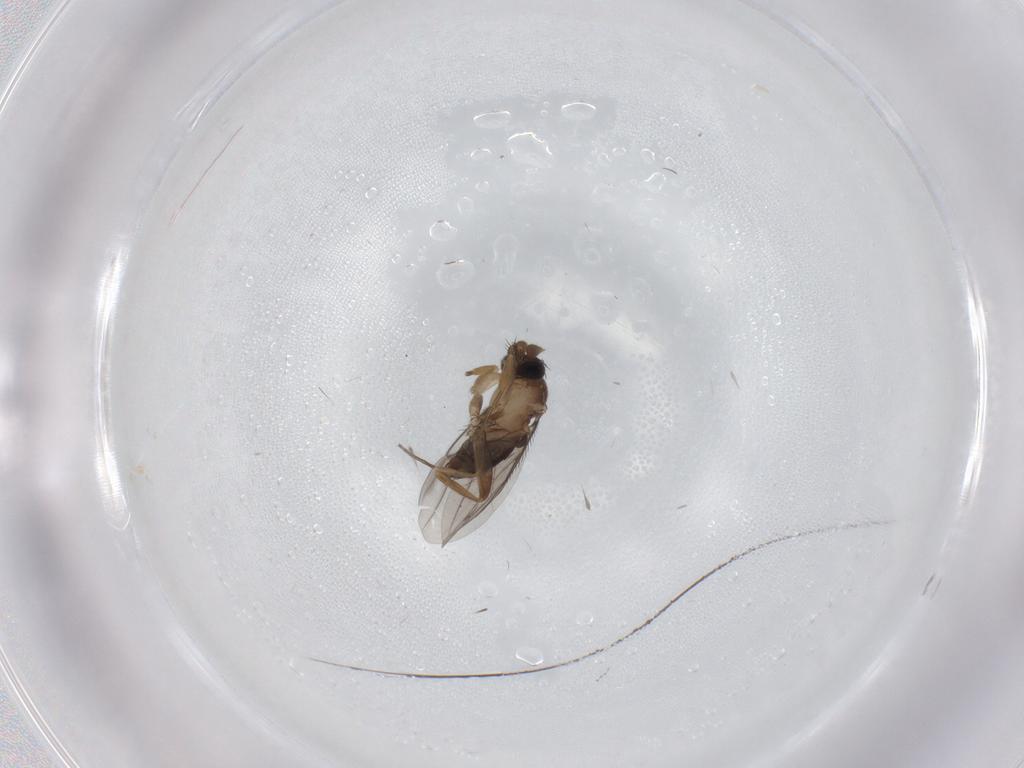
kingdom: Animalia
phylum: Arthropoda
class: Insecta
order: Diptera
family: Phoridae
